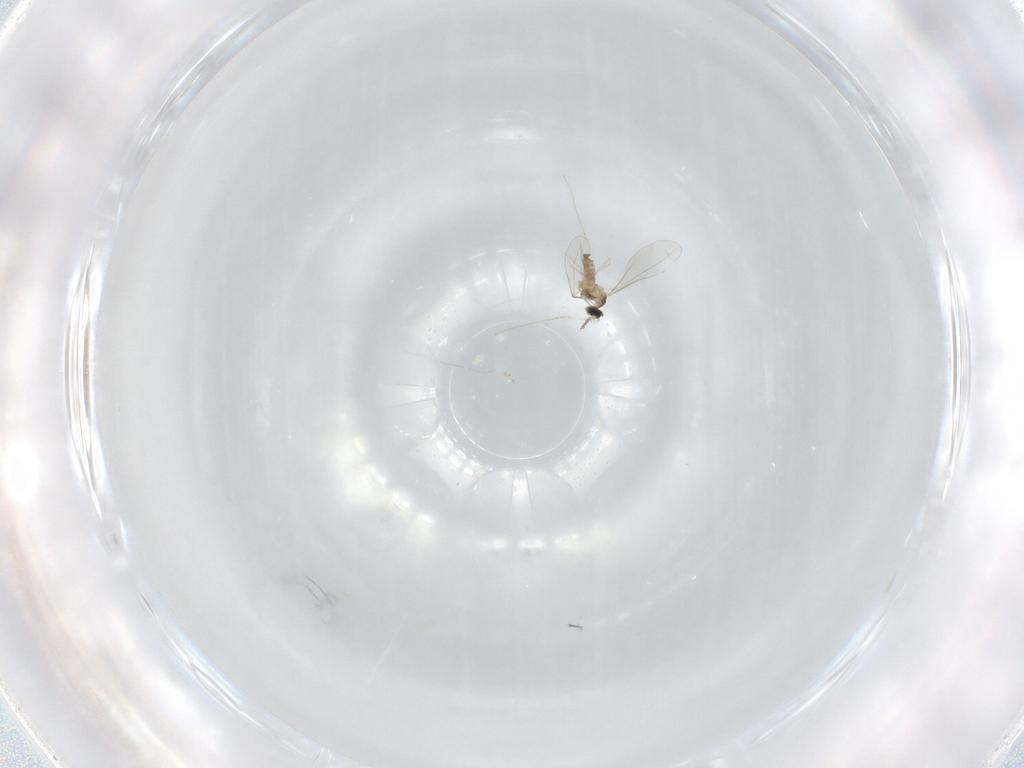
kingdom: Animalia
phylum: Arthropoda
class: Insecta
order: Diptera
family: Cecidomyiidae
